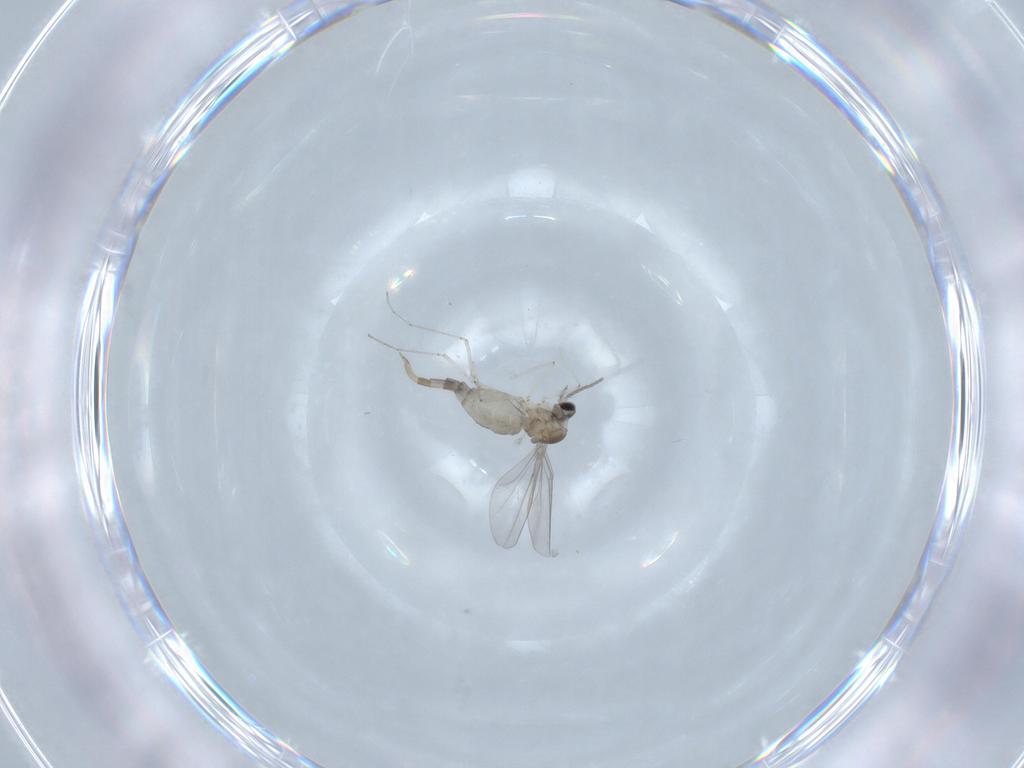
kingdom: Animalia
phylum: Arthropoda
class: Insecta
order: Diptera
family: Cecidomyiidae
